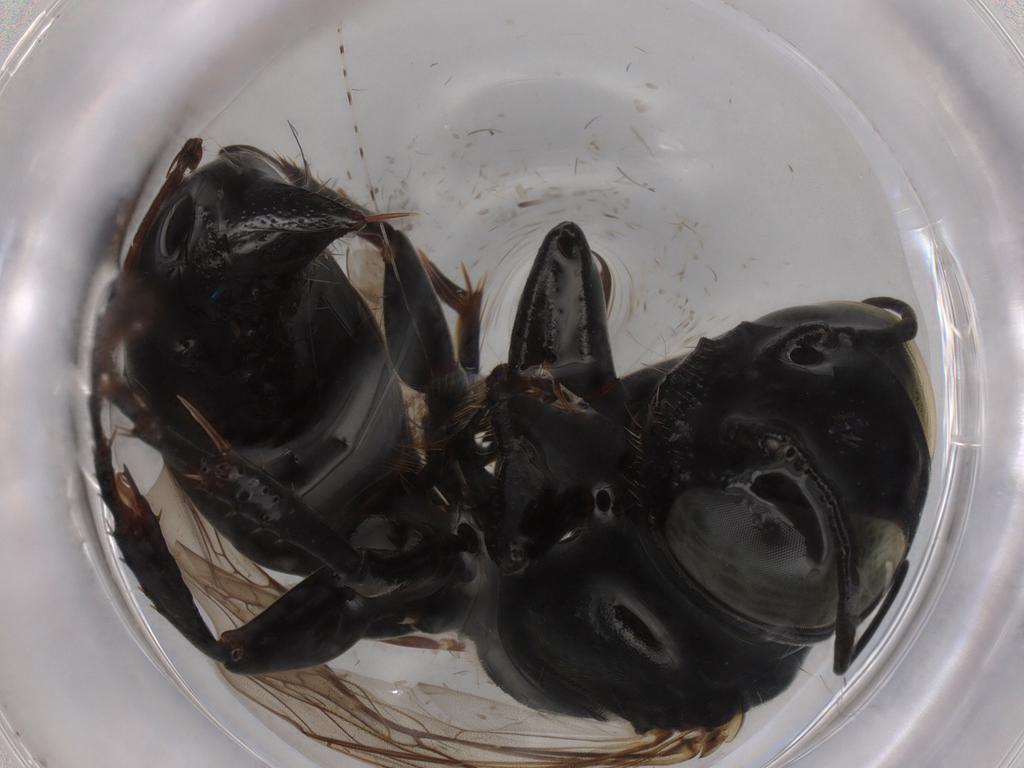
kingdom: Animalia
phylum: Arthropoda
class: Insecta
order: Hymenoptera
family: Crabronidae
